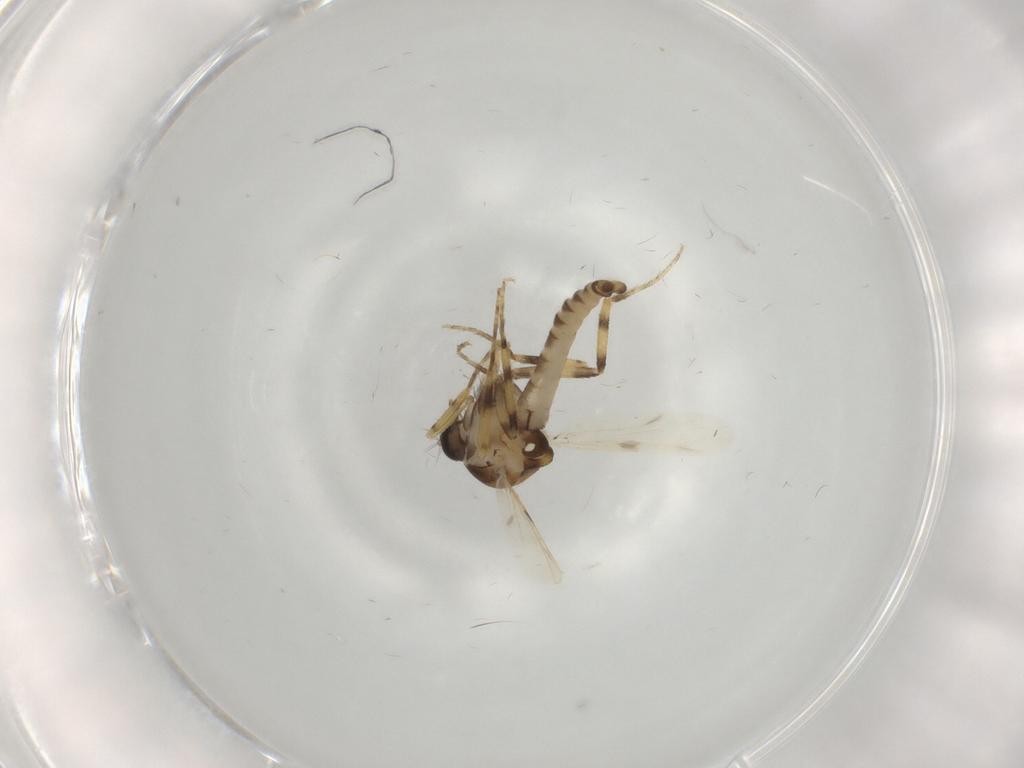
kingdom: Animalia
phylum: Arthropoda
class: Insecta
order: Diptera
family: Ceratopogonidae
